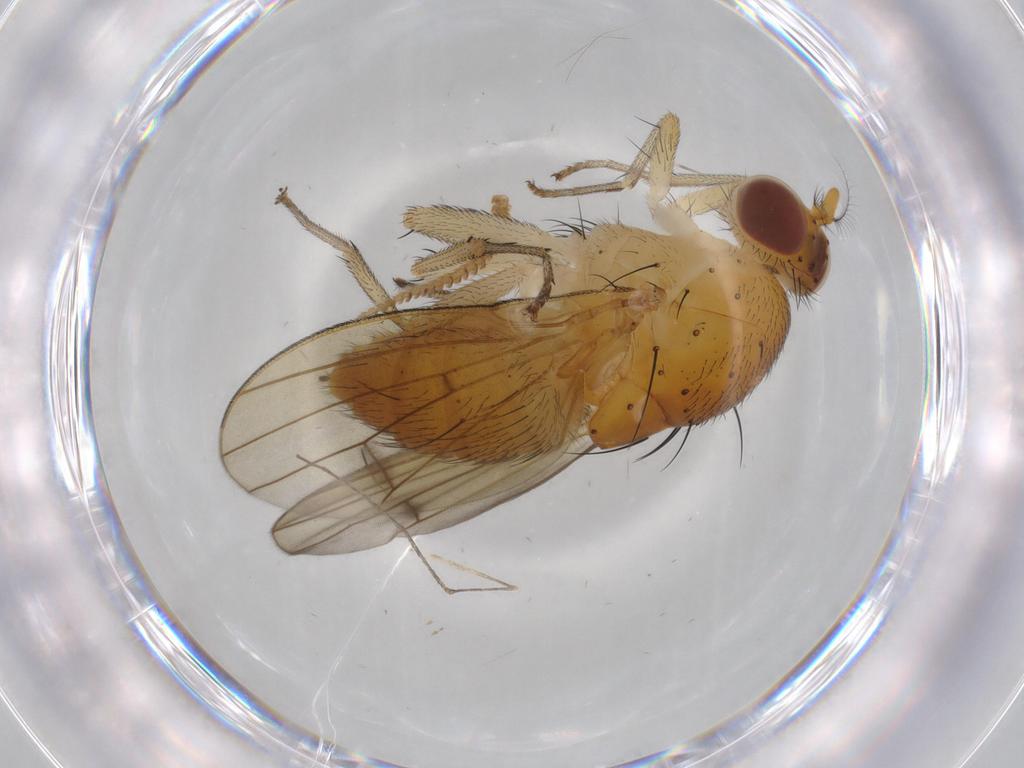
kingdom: Animalia
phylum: Arthropoda
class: Insecta
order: Diptera
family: Lauxaniidae
